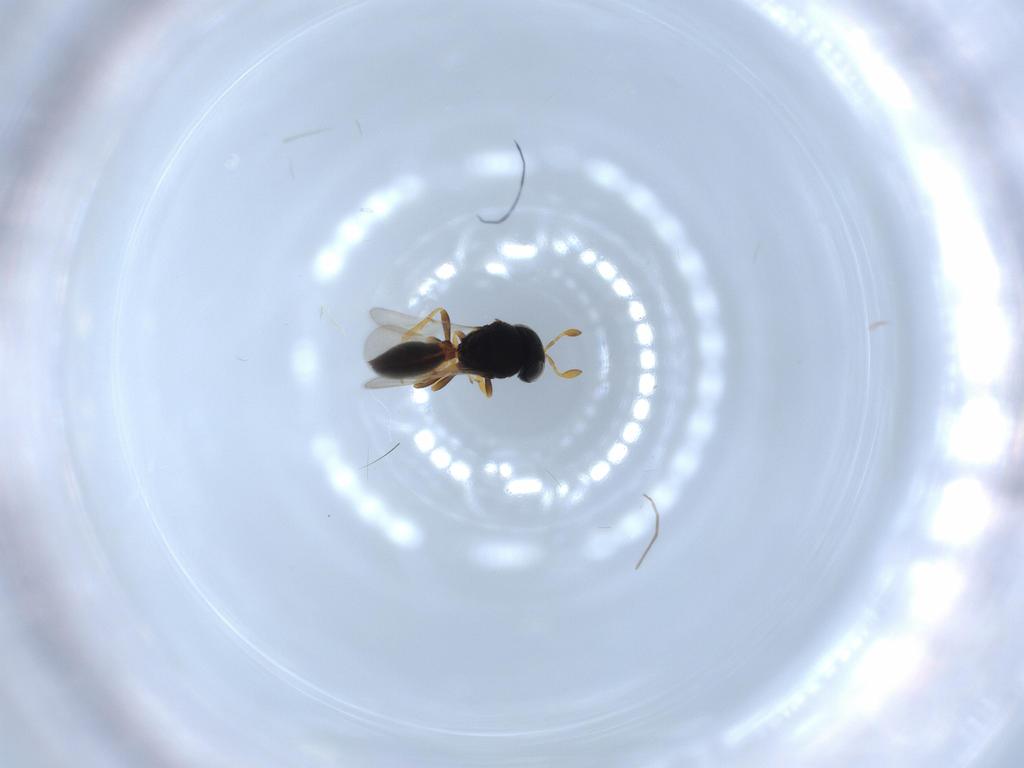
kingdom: Animalia
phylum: Arthropoda
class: Insecta
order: Hymenoptera
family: Scelionidae
